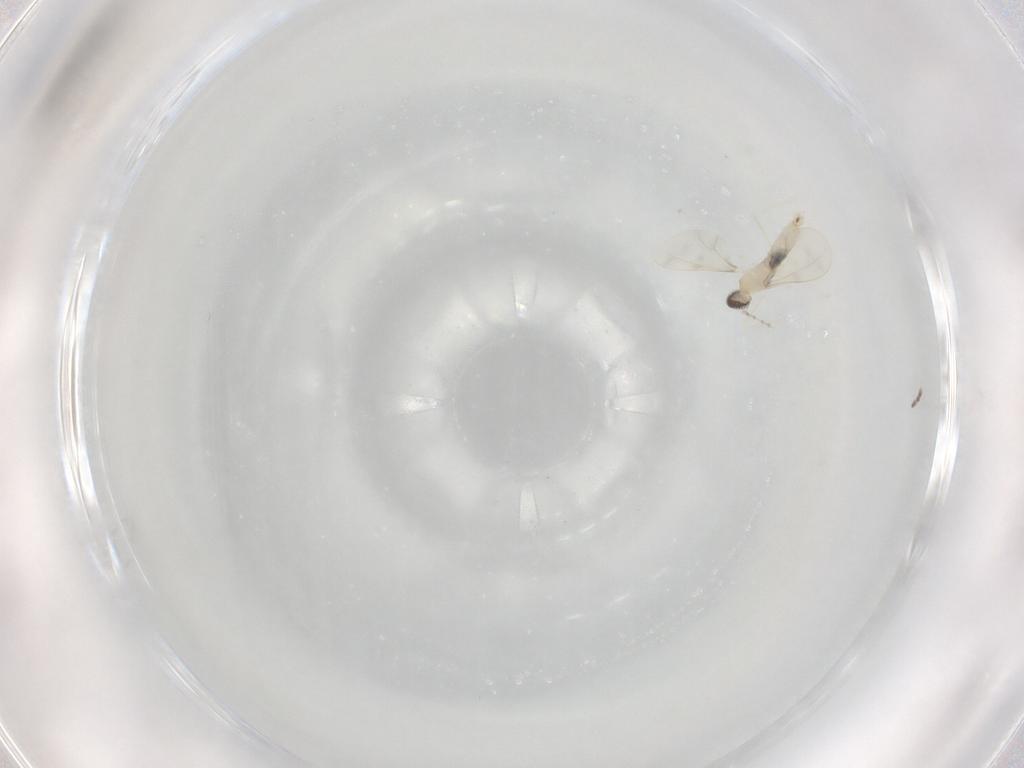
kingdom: Animalia
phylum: Arthropoda
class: Insecta
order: Diptera
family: Cecidomyiidae
